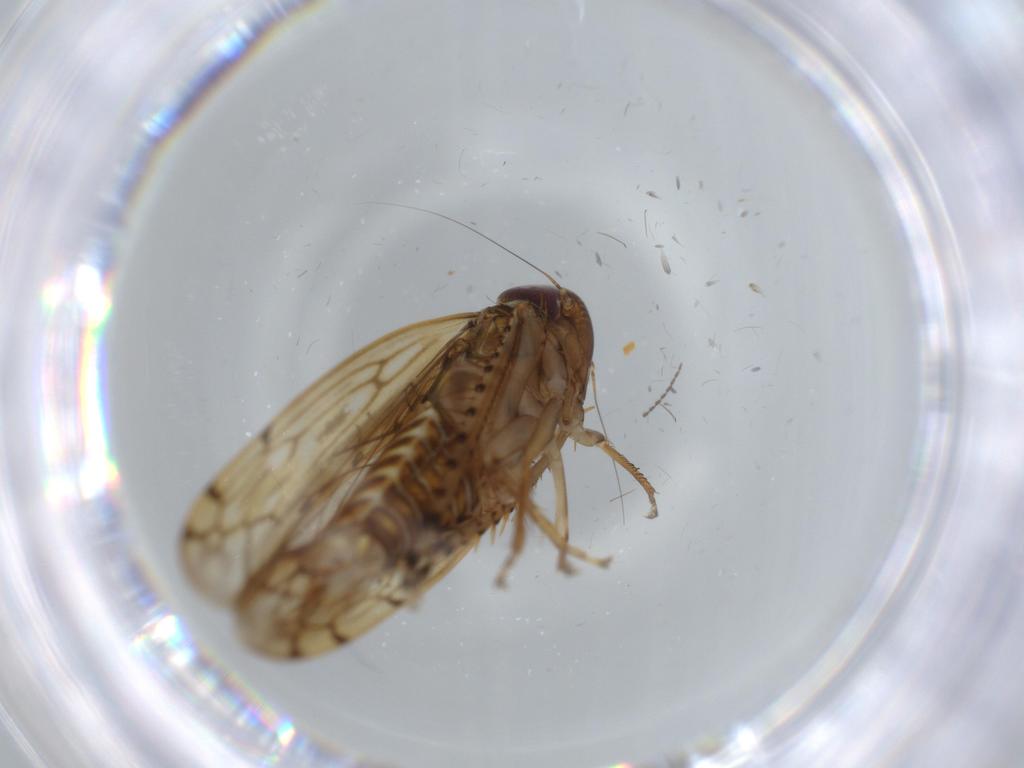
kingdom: Animalia
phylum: Arthropoda
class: Insecta
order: Hemiptera
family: Cicadellidae
